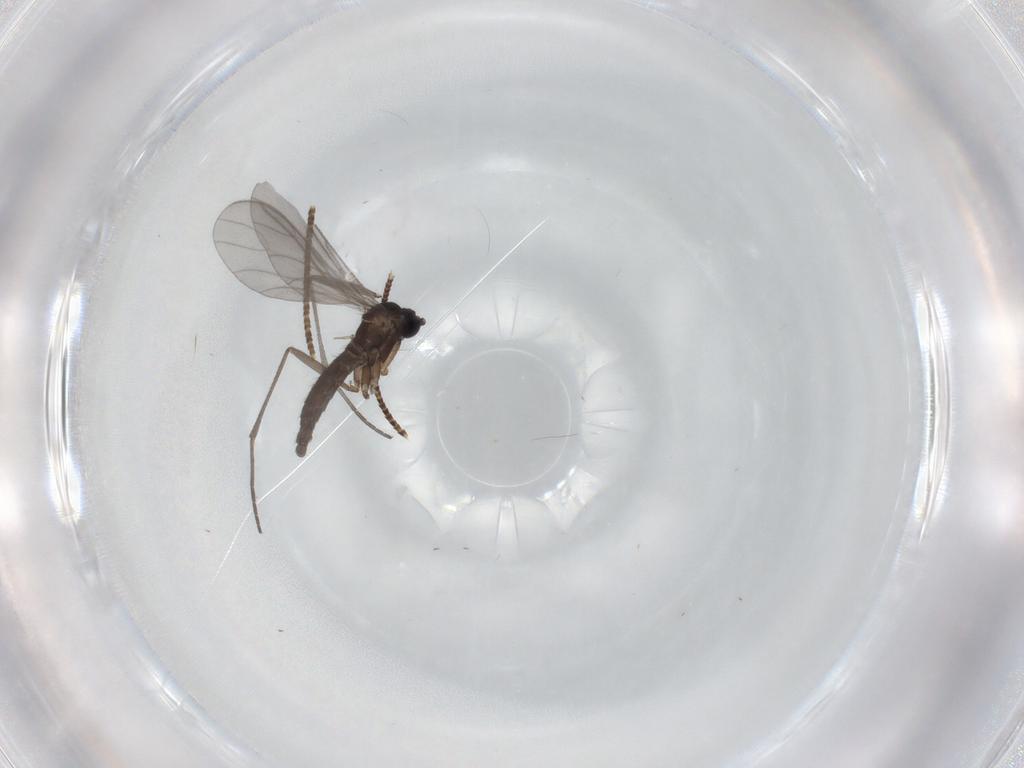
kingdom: Animalia
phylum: Arthropoda
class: Insecta
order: Diptera
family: Sciaridae
